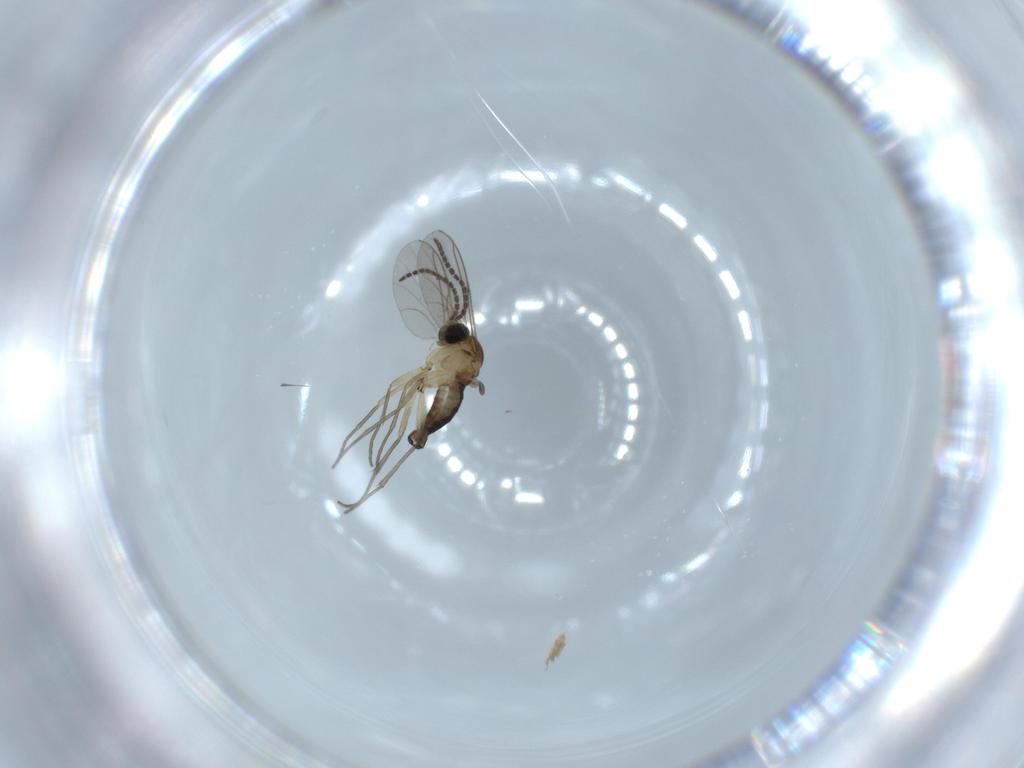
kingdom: Animalia
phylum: Arthropoda
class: Insecta
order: Diptera
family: Sciaridae
